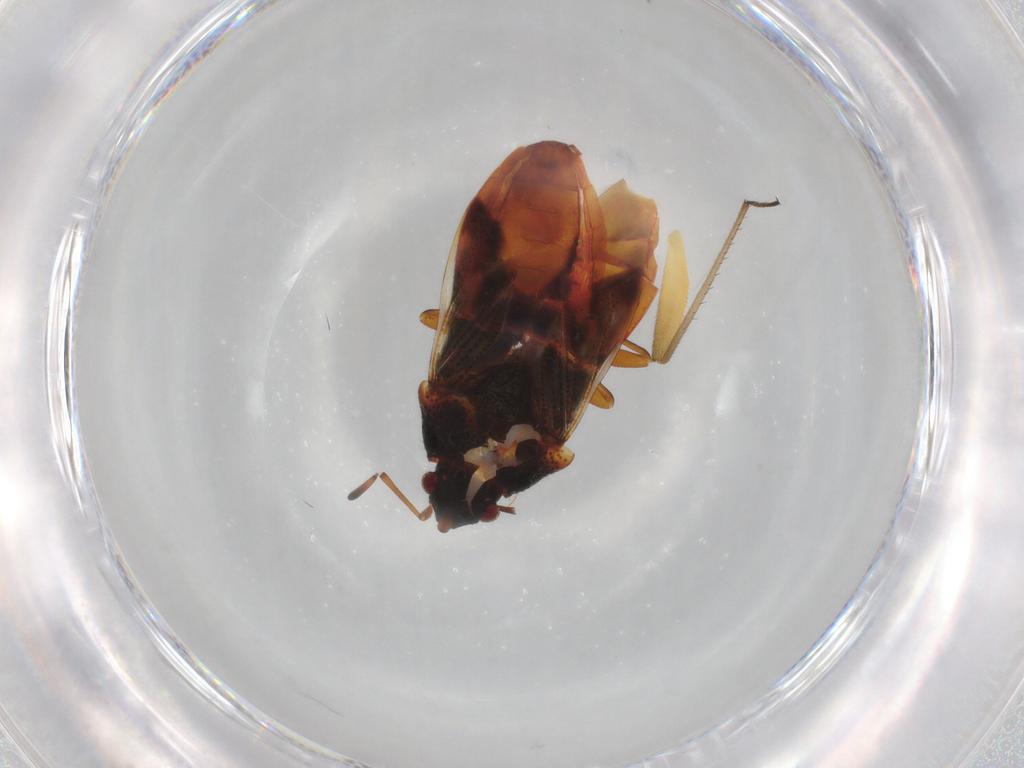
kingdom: Animalia
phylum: Arthropoda
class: Insecta
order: Hemiptera
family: Rhyparochromidae
